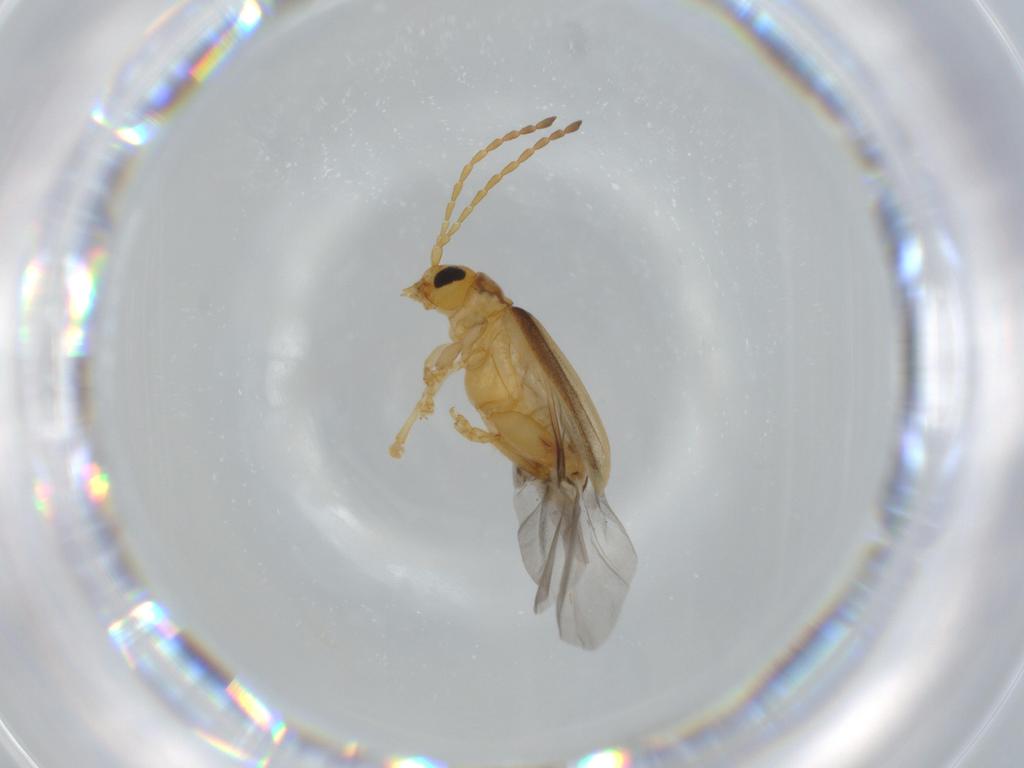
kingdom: Animalia
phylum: Arthropoda
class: Insecta
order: Coleoptera
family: Chrysomelidae
